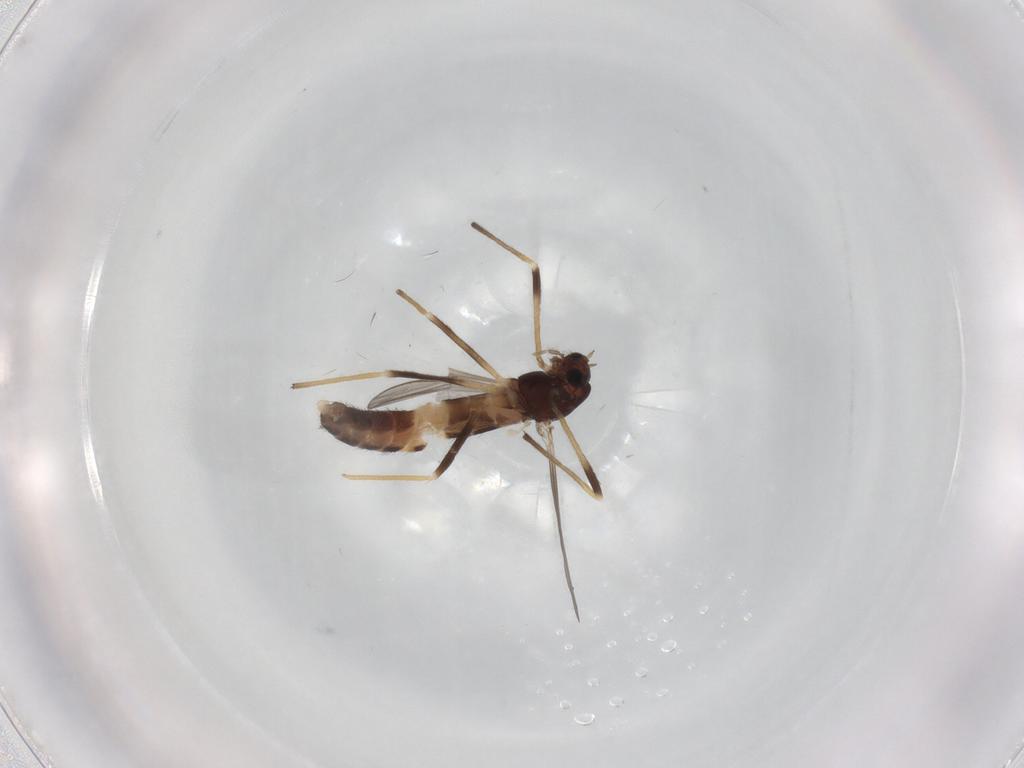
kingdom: Animalia
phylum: Arthropoda
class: Insecta
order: Diptera
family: Chironomidae
